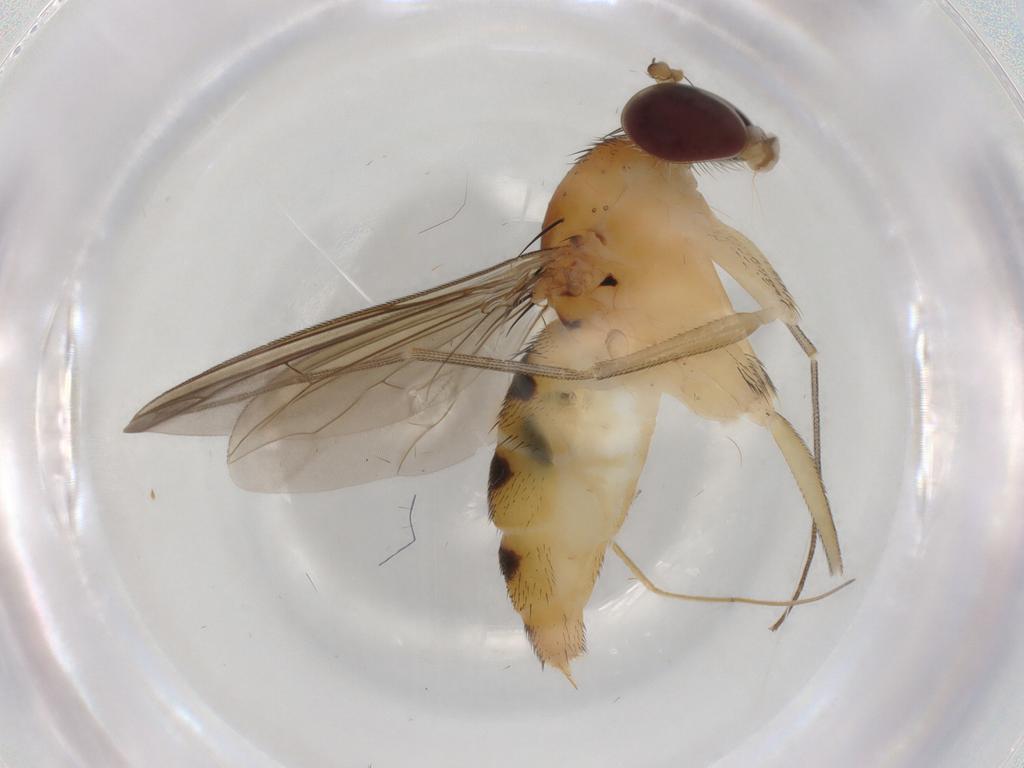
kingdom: Animalia
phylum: Arthropoda
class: Insecta
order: Diptera
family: Dolichopodidae
